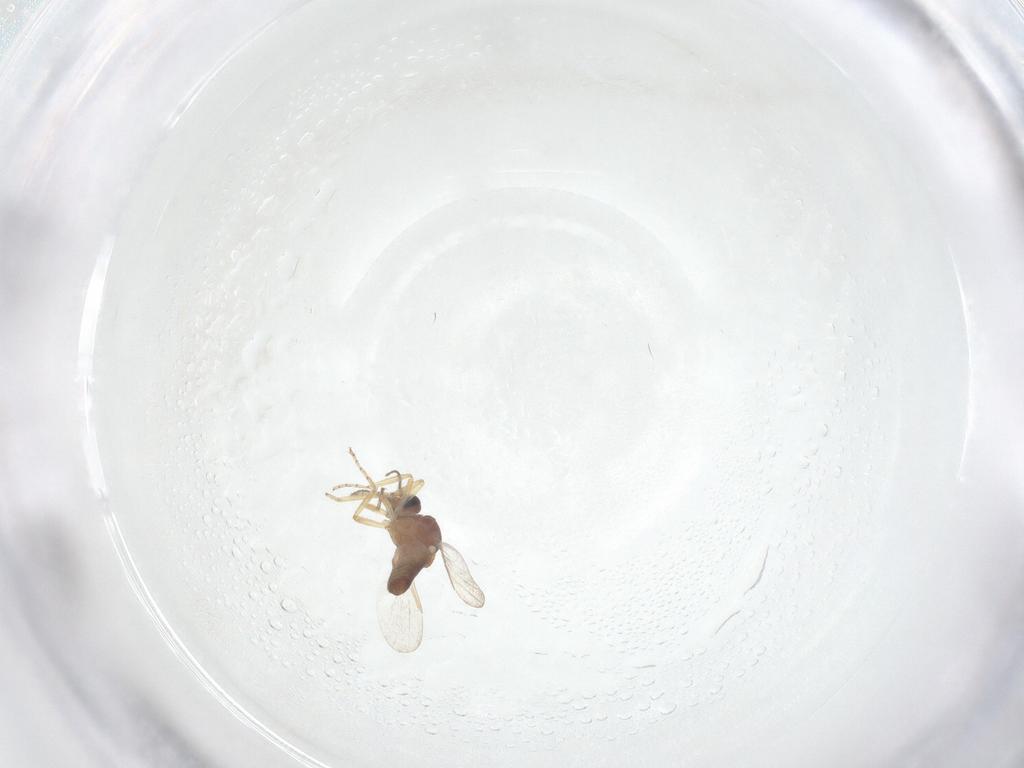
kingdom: Animalia
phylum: Arthropoda
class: Insecta
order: Diptera
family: Ceratopogonidae
